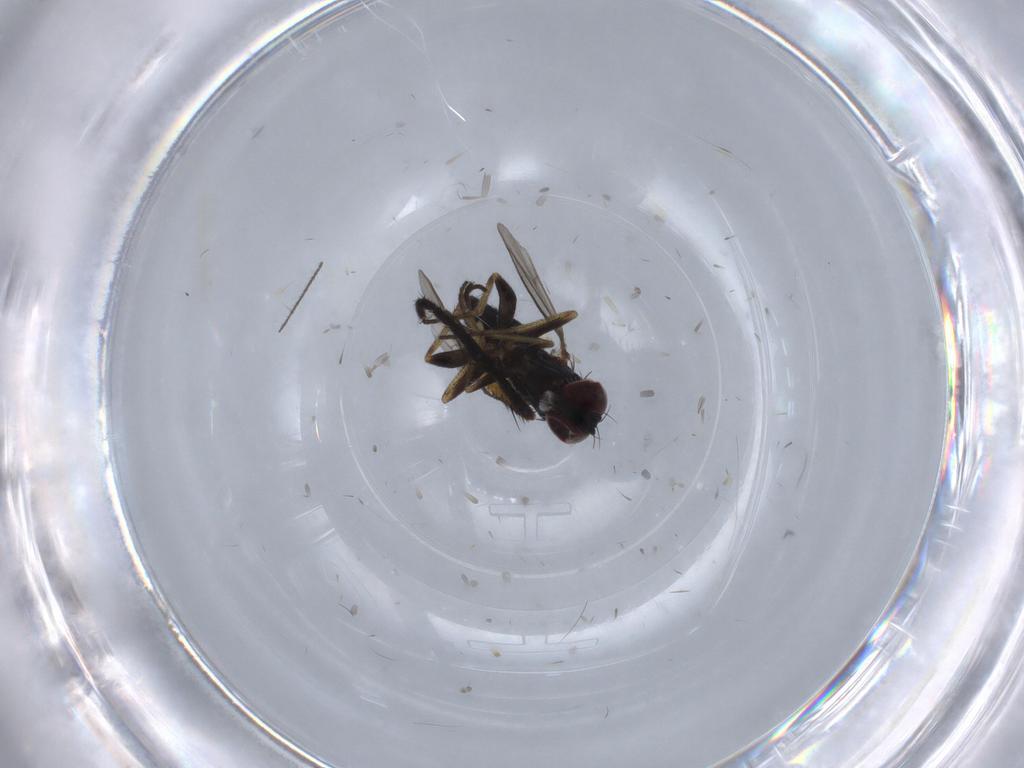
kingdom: Animalia
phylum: Arthropoda
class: Insecta
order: Diptera
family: Dolichopodidae
